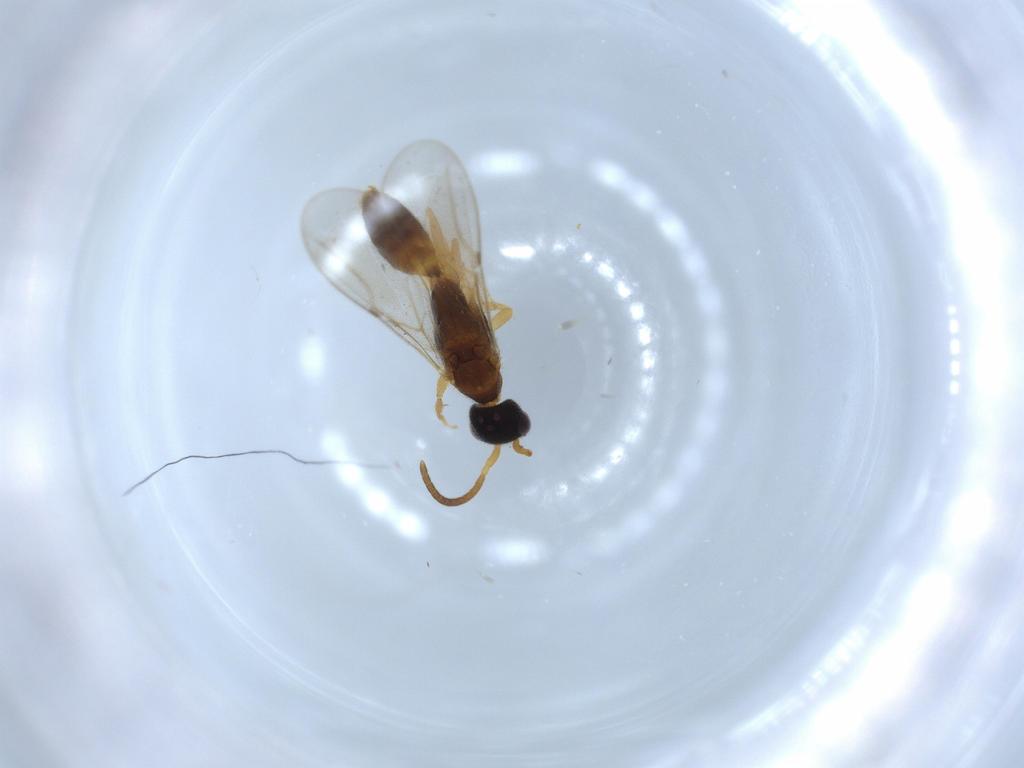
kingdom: Animalia
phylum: Arthropoda
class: Insecta
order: Hymenoptera
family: Bethylidae
